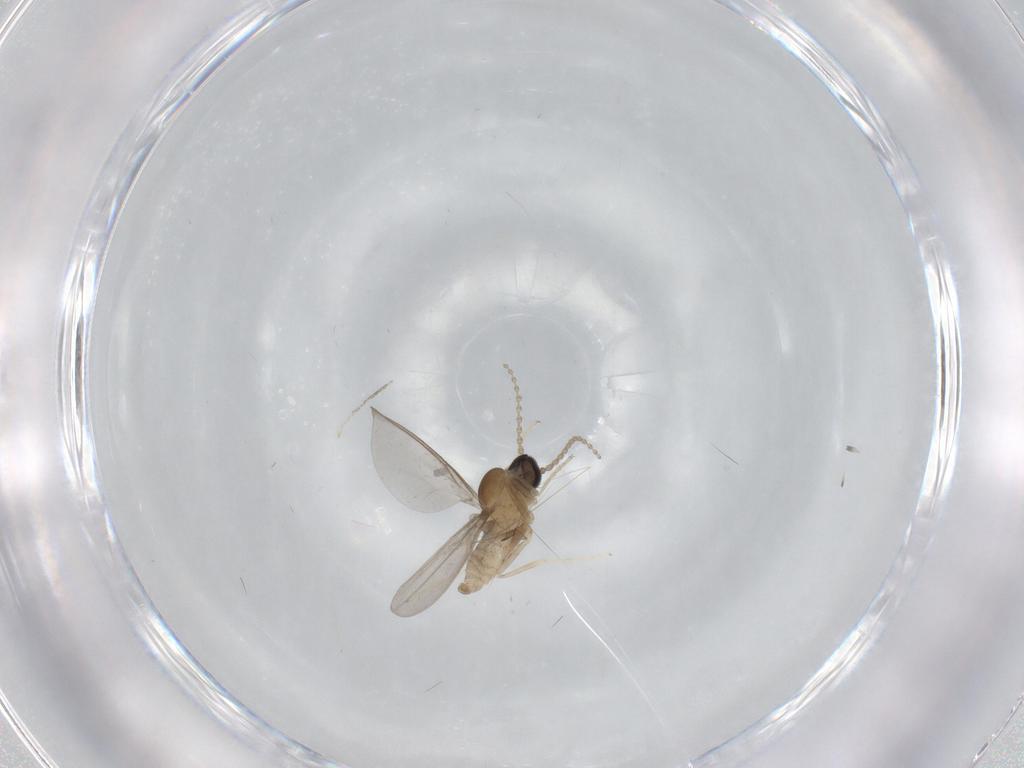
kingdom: Animalia
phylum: Arthropoda
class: Insecta
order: Diptera
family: Cecidomyiidae
